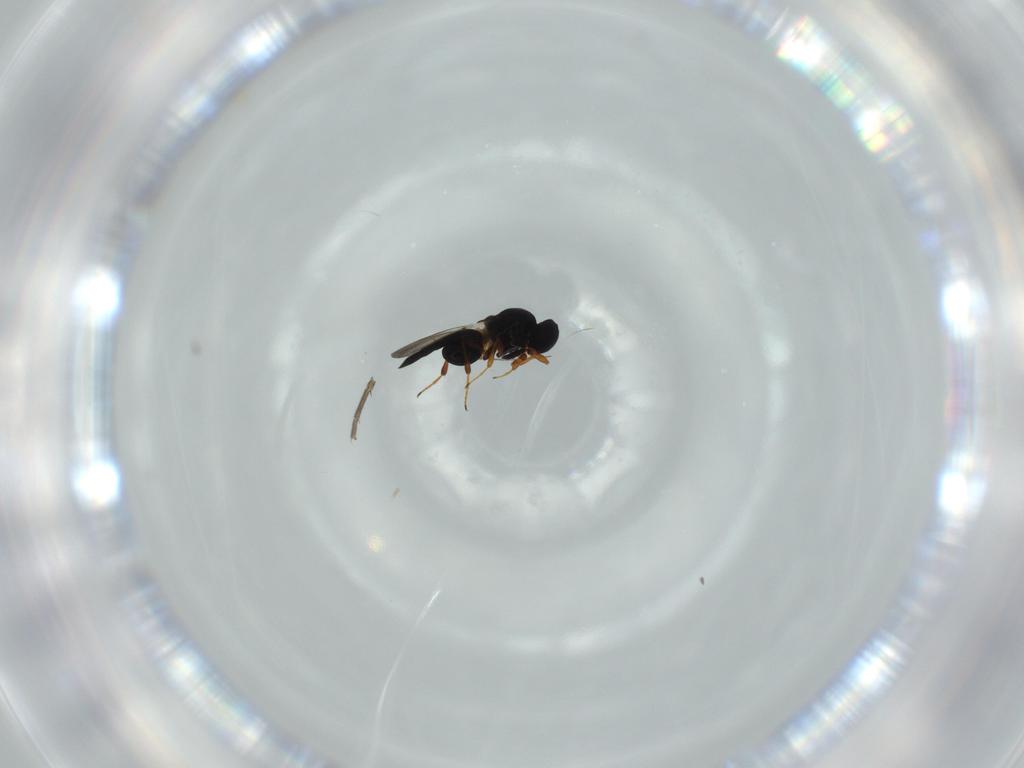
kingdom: Animalia
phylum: Arthropoda
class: Insecta
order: Hymenoptera
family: Platygastridae
